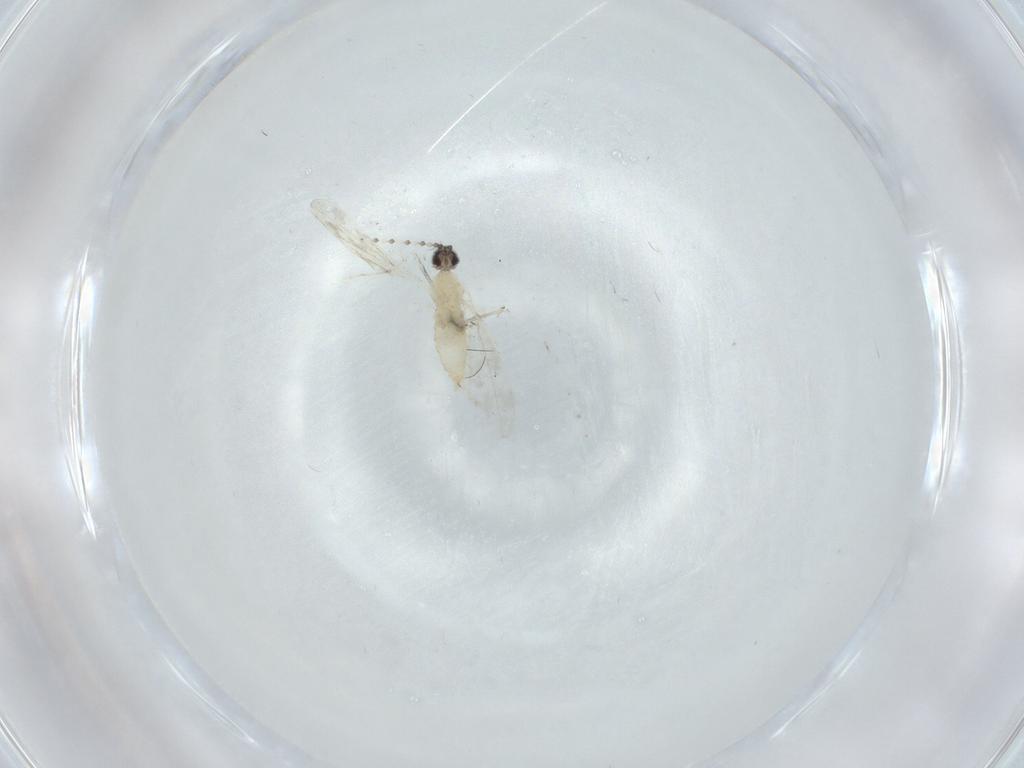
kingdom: Animalia
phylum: Arthropoda
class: Insecta
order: Diptera
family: Cecidomyiidae
